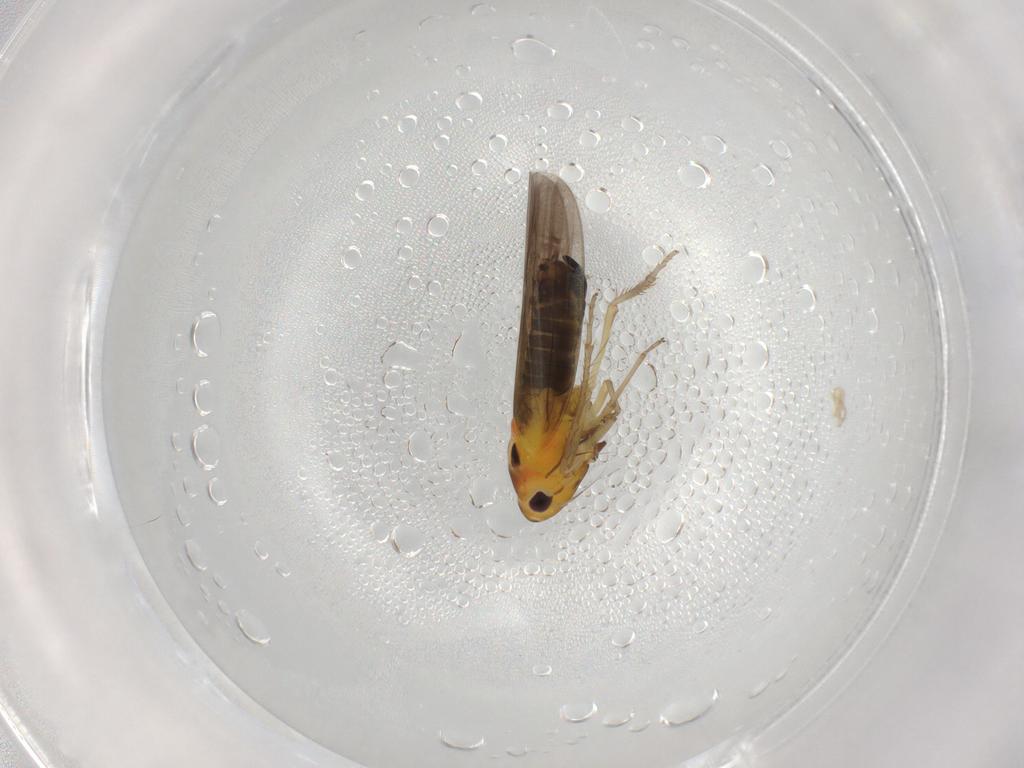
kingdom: Animalia
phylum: Arthropoda
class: Insecta
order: Hemiptera
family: Cicadellidae
